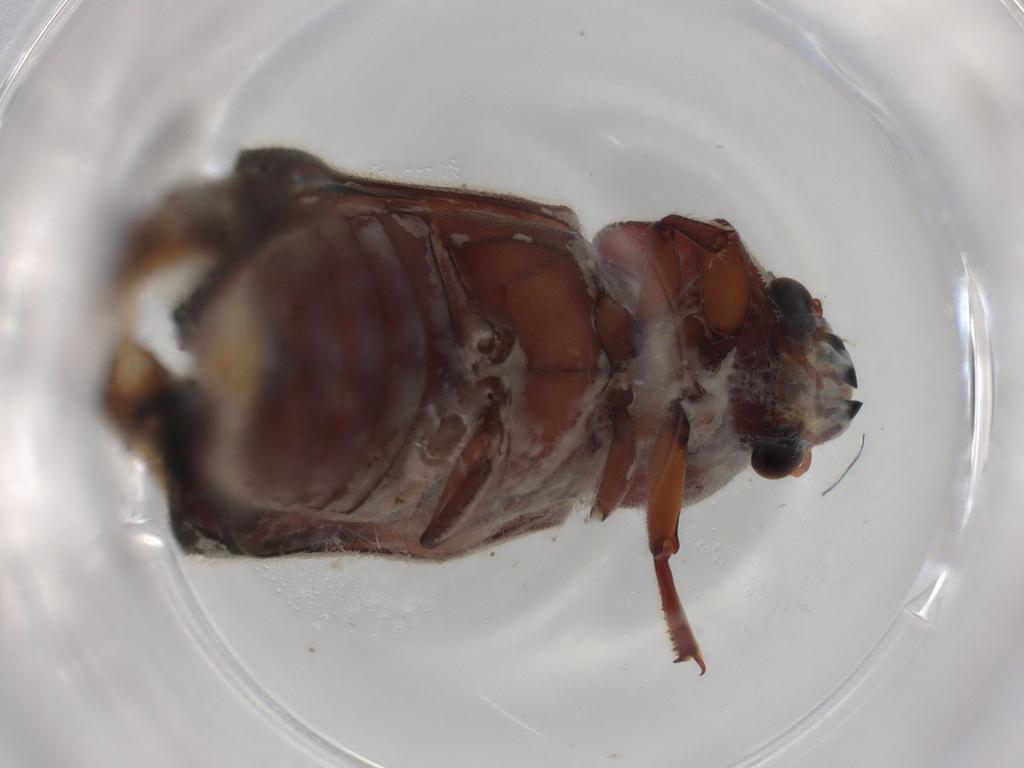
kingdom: Animalia
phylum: Arthropoda
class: Insecta
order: Coleoptera
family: Bostrichidae
